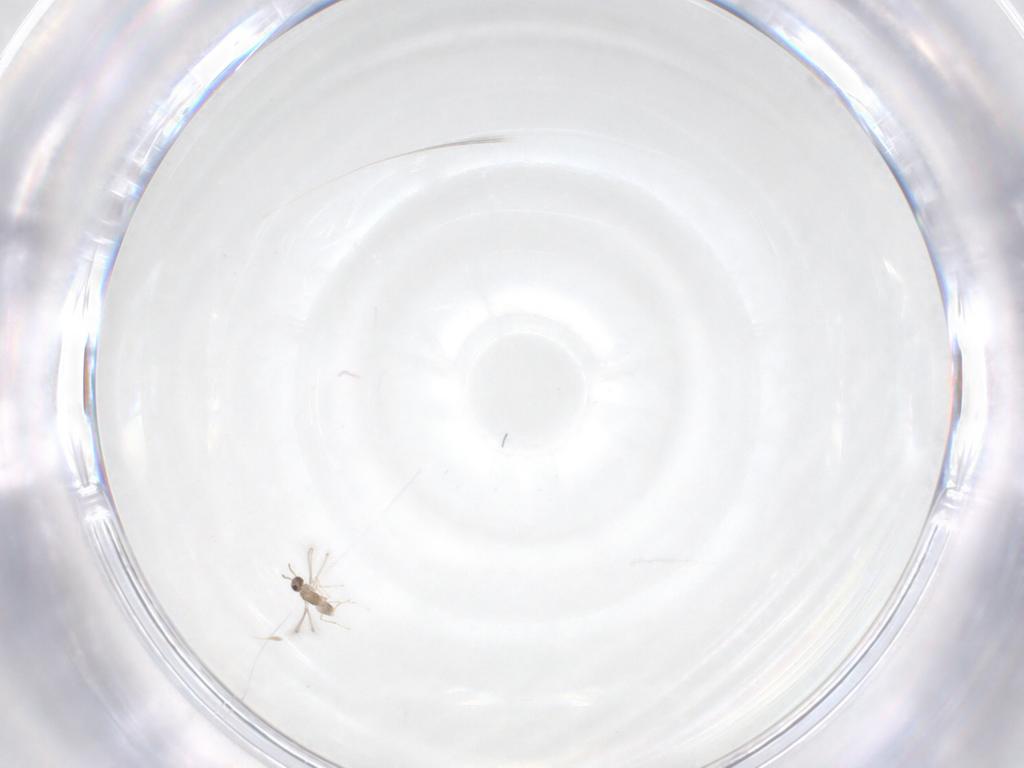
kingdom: Animalia
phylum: Arthropoda
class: Insecta
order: Hymenoptera
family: Mymaridae
